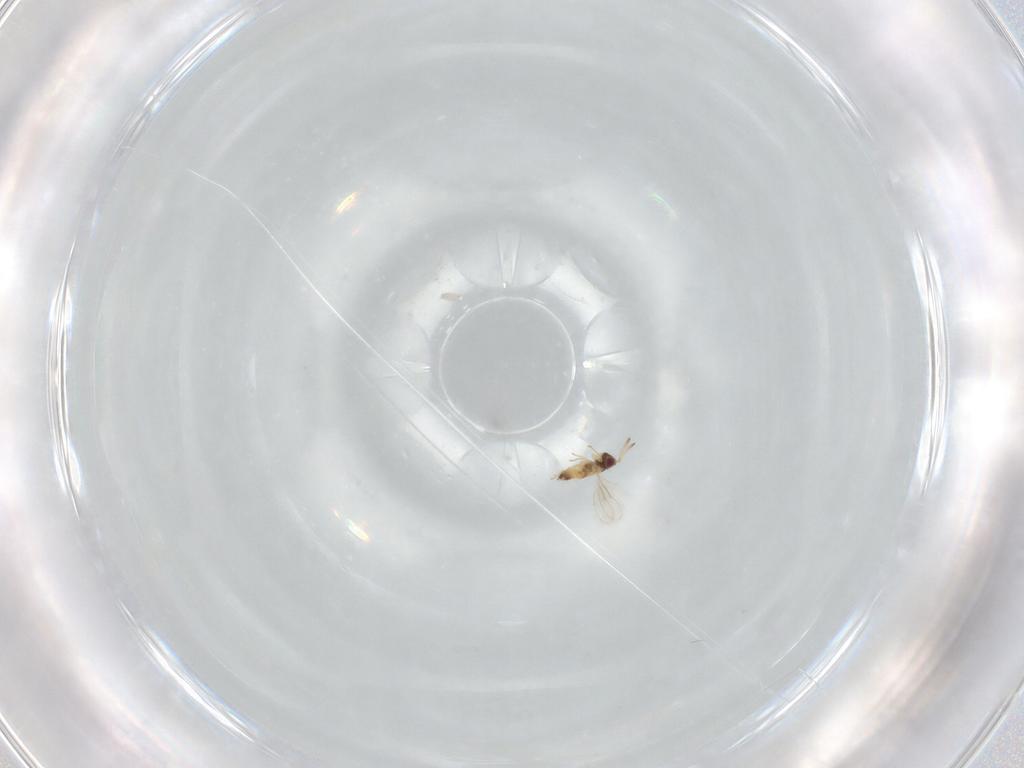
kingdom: Animalia
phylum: Arthropoda
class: Insecta
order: Hymenoptera
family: Aphelinidae
